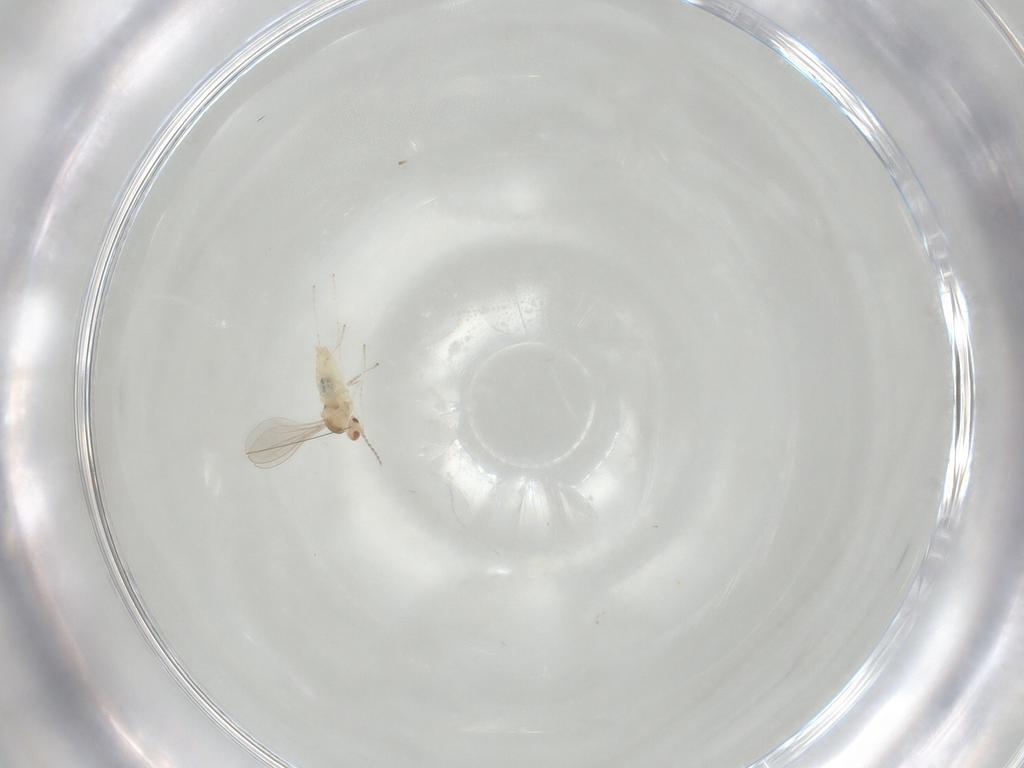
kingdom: Animalia
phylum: Arthropoda
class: Insecta
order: Diptera
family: Cecidomyiidae
